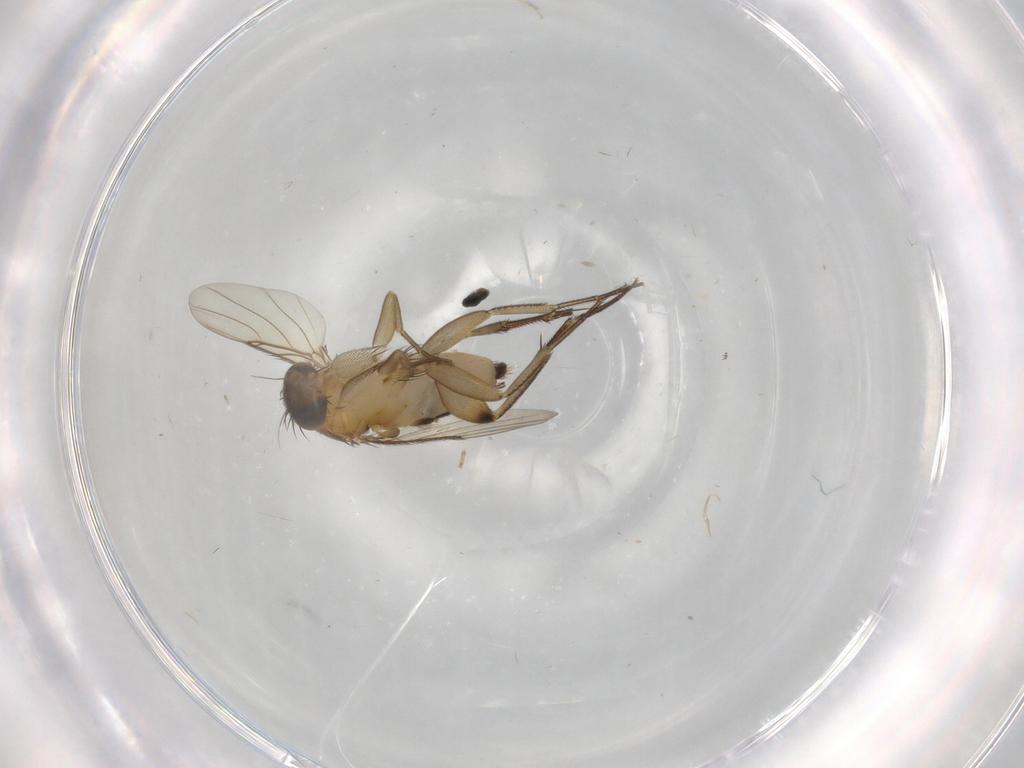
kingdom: Animalia
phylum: Arthropoda
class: Insecta
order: Diptera
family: Phoridae
